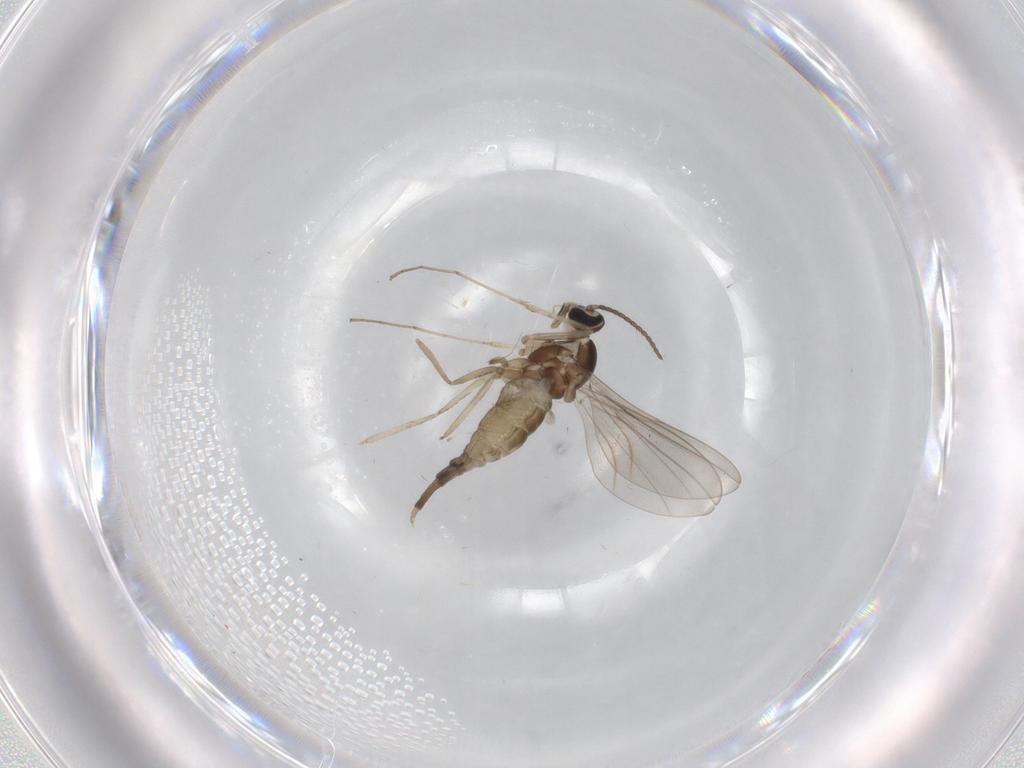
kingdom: Animalia
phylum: Arthropoda
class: Insecta
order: Diptera
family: Cecidomyiidae
